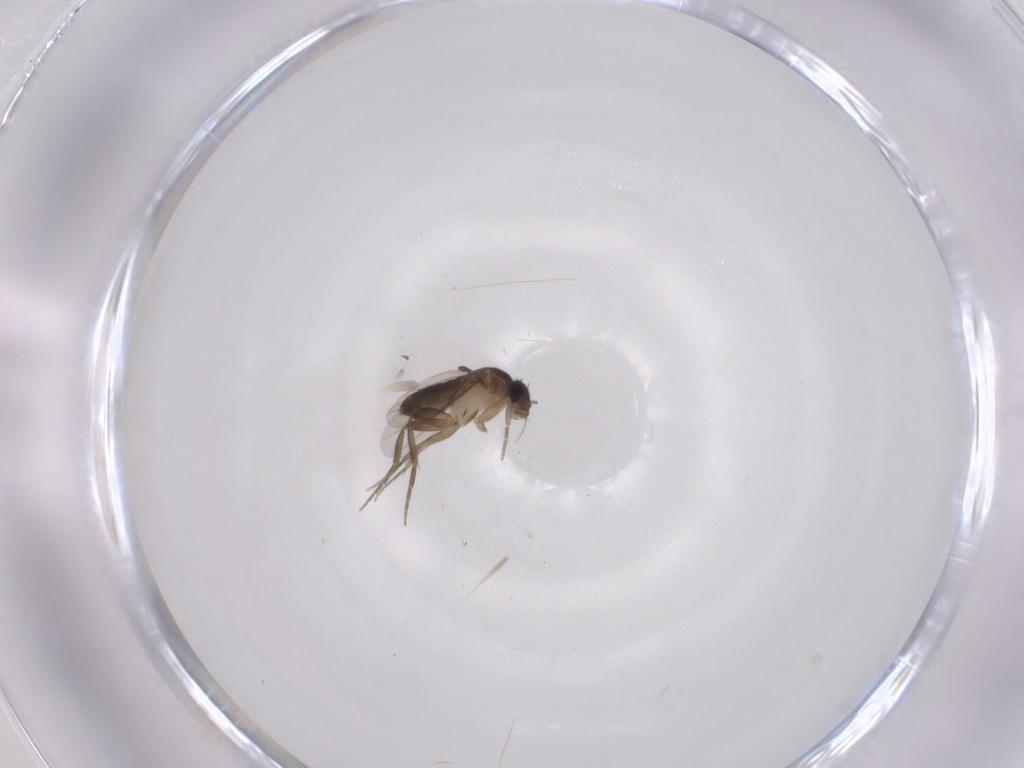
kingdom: Animalia
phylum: Arthropoda
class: Insecta
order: Diptera
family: Phoridae
